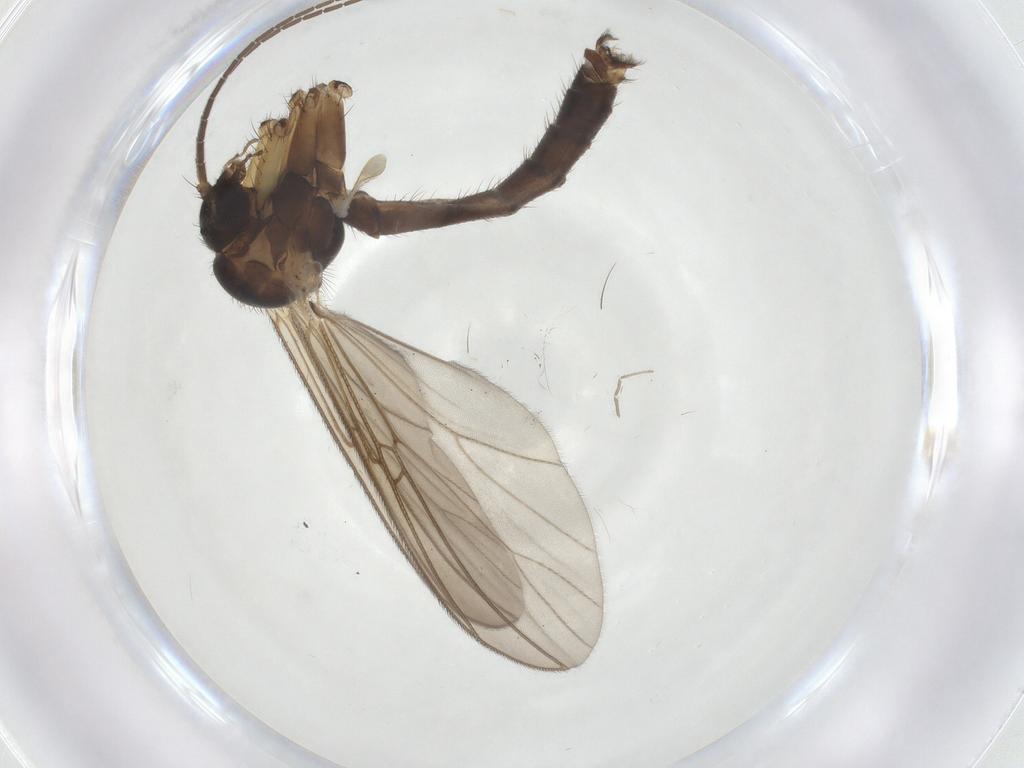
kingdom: Animalia
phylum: Arthropoda
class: Insecta
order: Diptera
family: Mycetophilidae
